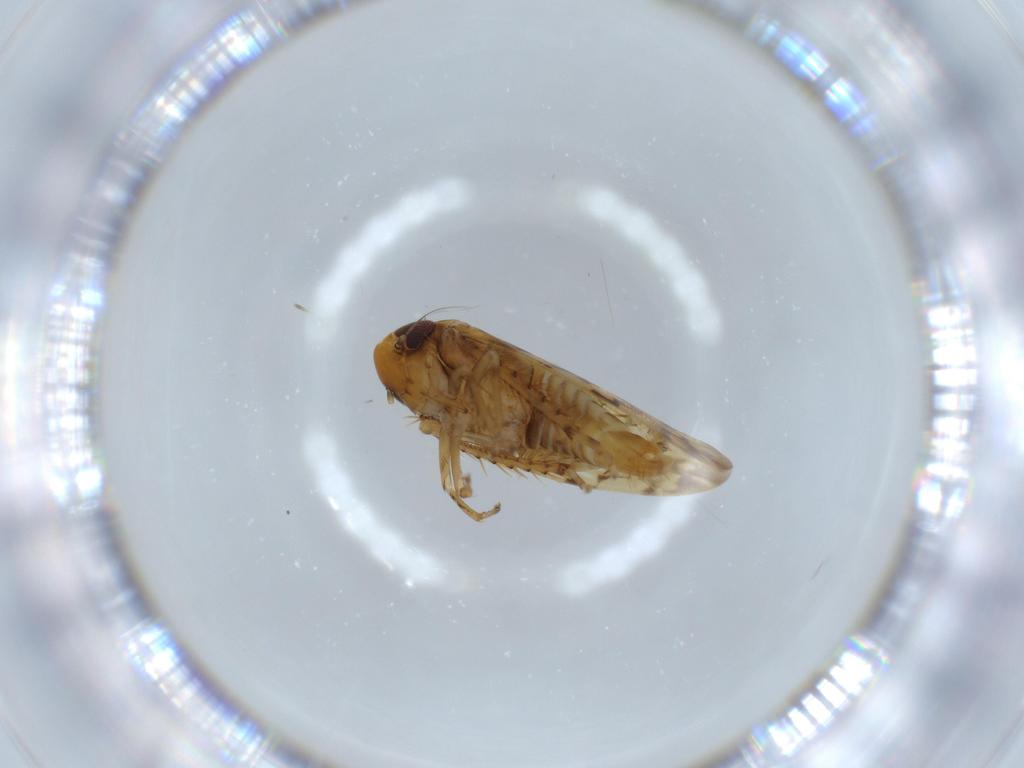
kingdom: Animalia
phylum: Arthropoda
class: Insecta
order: Hemiptera
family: Cicadellidae
